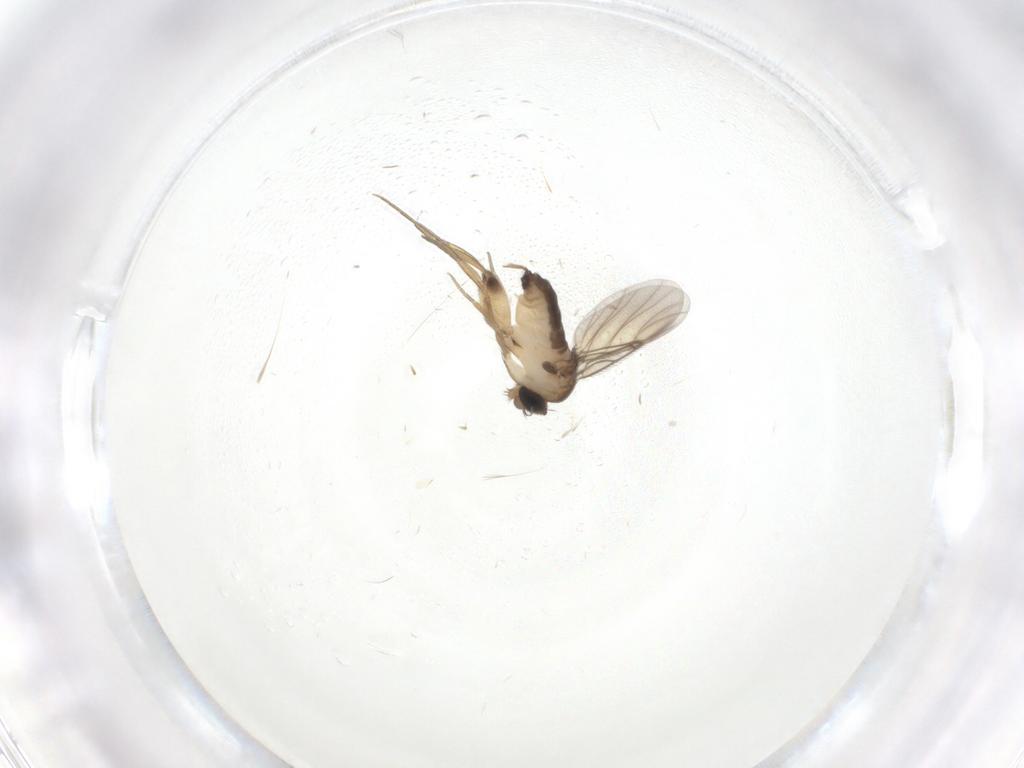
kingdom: Animalia
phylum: Arthropoda
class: Insecta
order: Diptera
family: Phoridae
